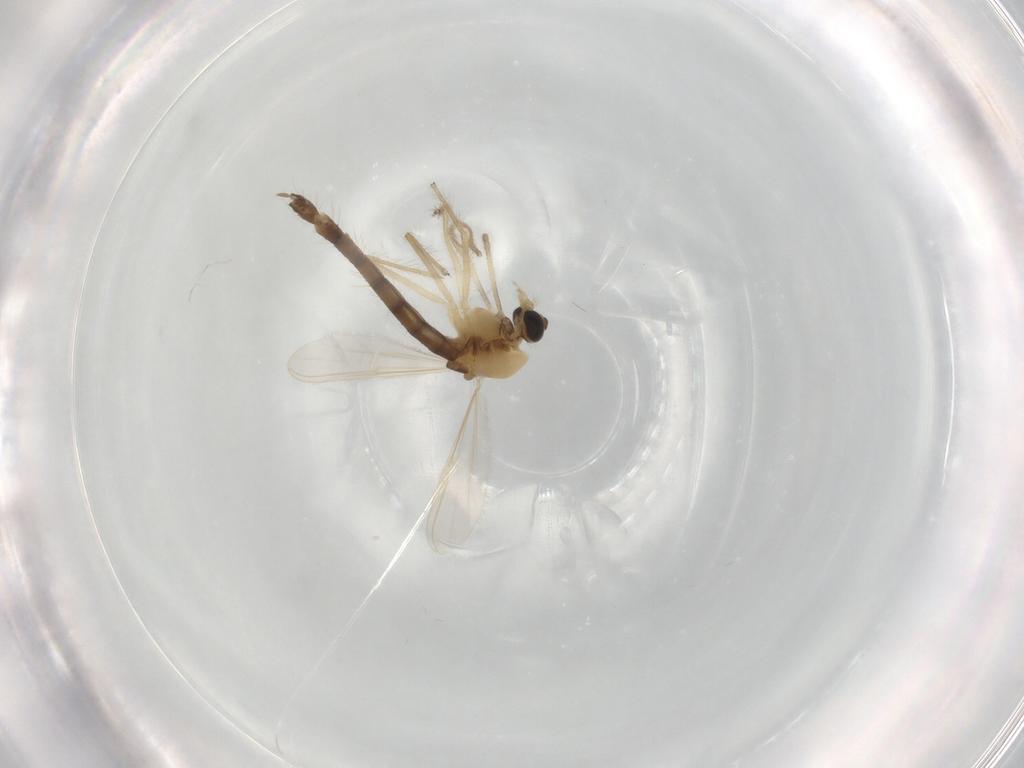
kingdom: Animalia
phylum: Arthropoda
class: Insecta
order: Diptera
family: Chironomidae
